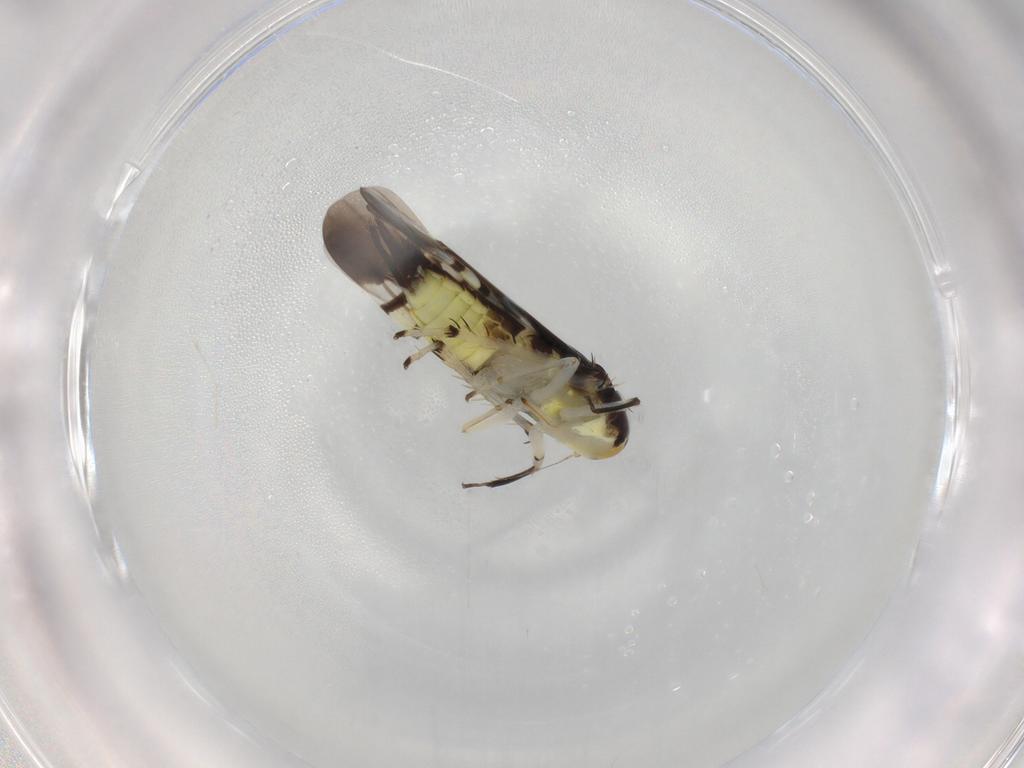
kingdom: Animalia
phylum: Arthropoda
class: Insecta
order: Hemiptera
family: Cicadellidae
